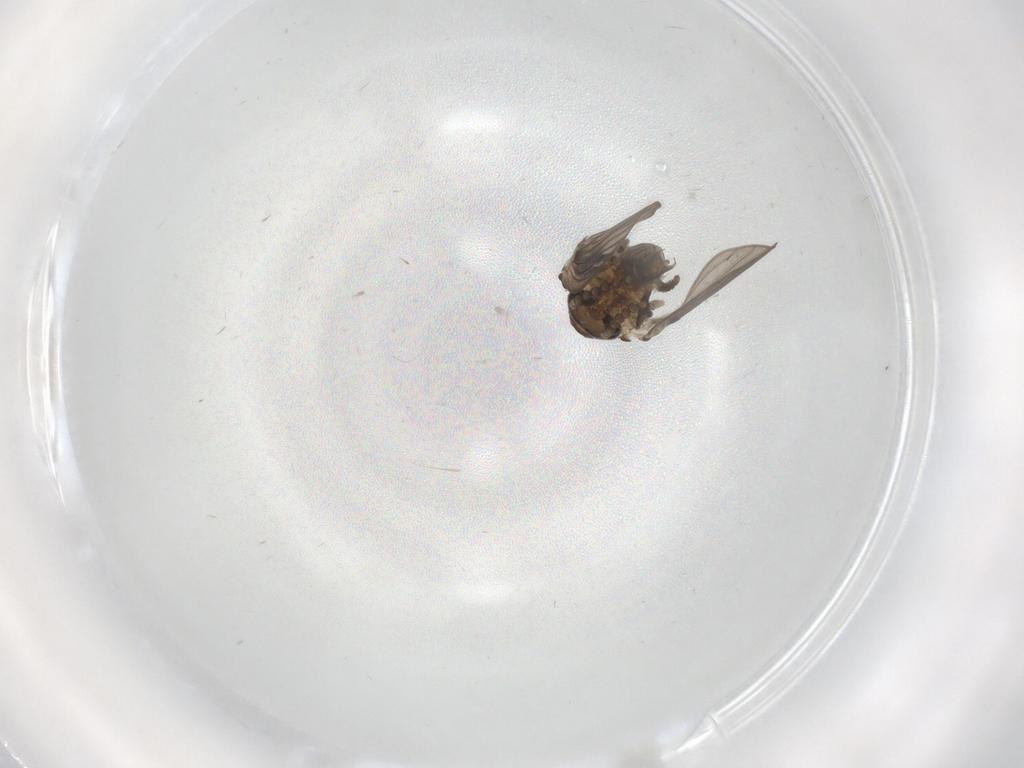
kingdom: Animalia
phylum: Arthropoda
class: Insecta
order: Diptera
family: Psychodidae
